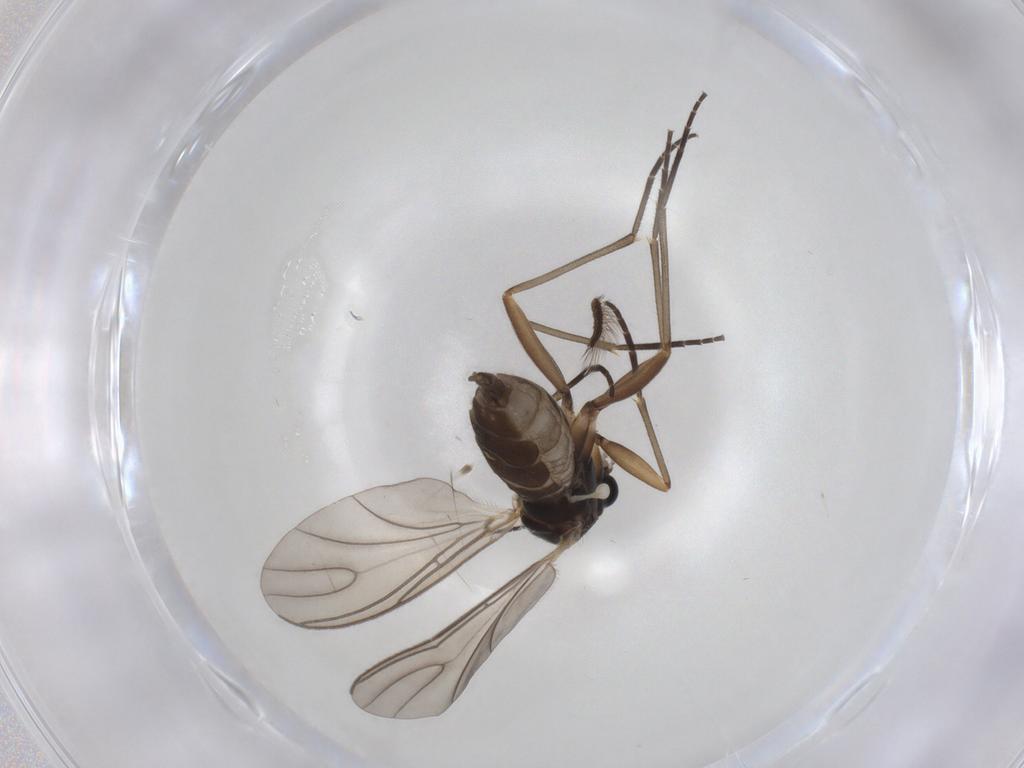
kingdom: Animalia
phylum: Arthropoda
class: Insecta
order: Diptera
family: Sciaridae
